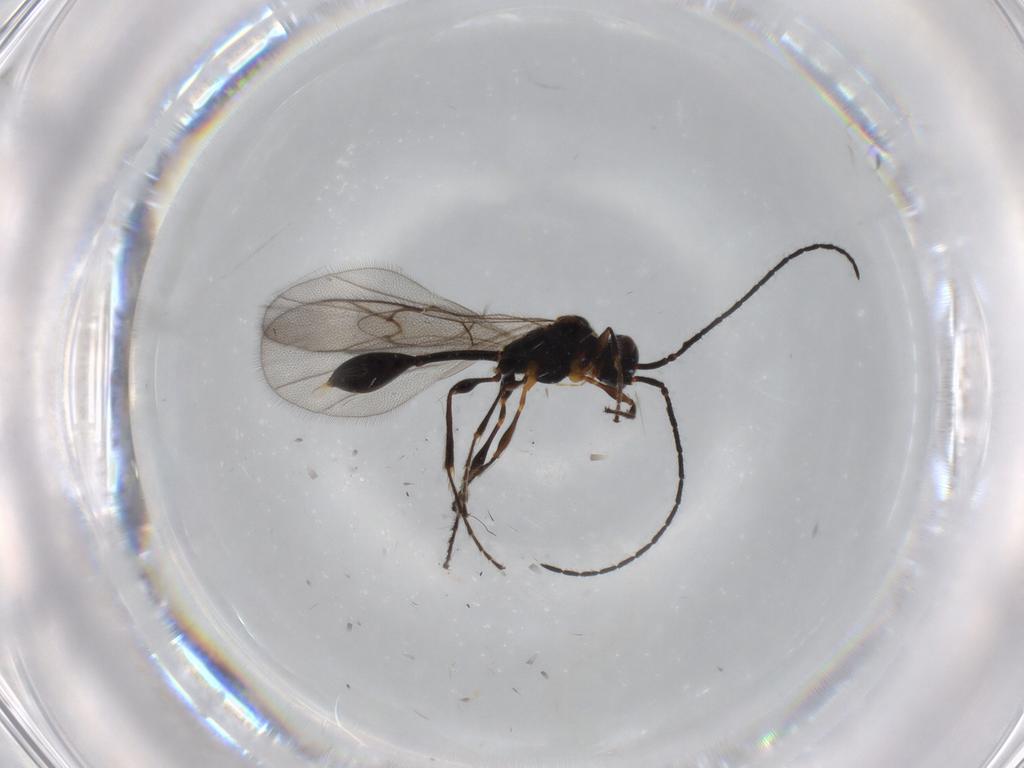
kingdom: Animalia
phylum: Arthropoda
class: Insecta
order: Hymenoptera
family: Diapriidae
